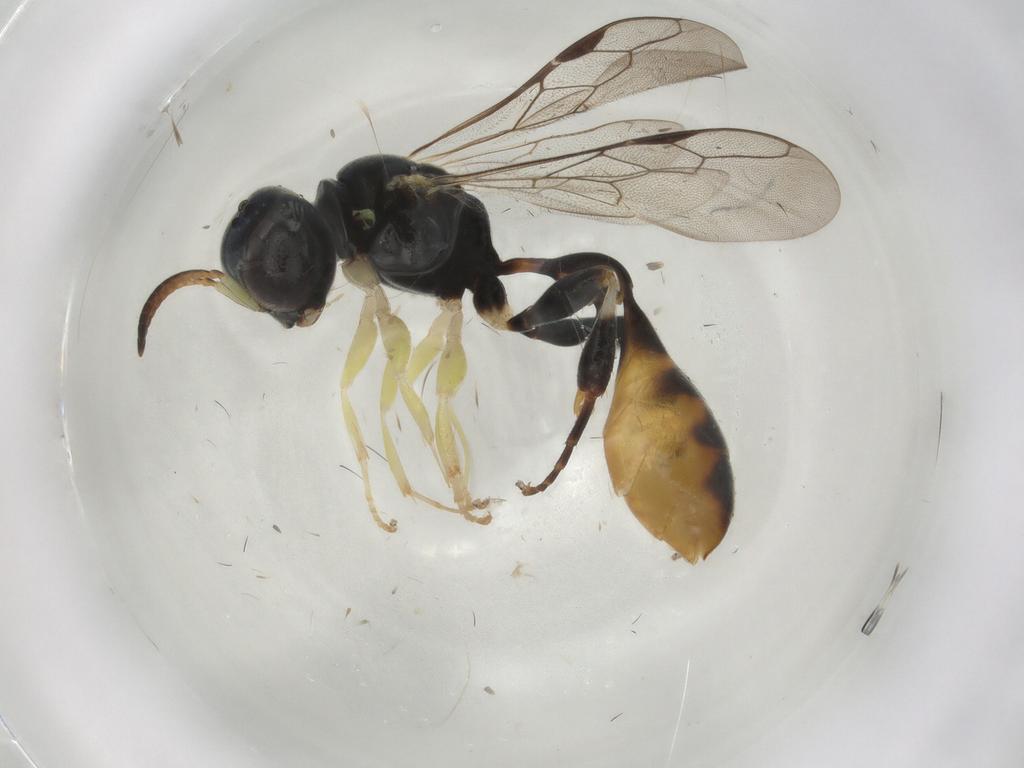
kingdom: Animalia
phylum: Arthropoda
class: Insecta
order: Hymenoptera
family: Crabronidae
